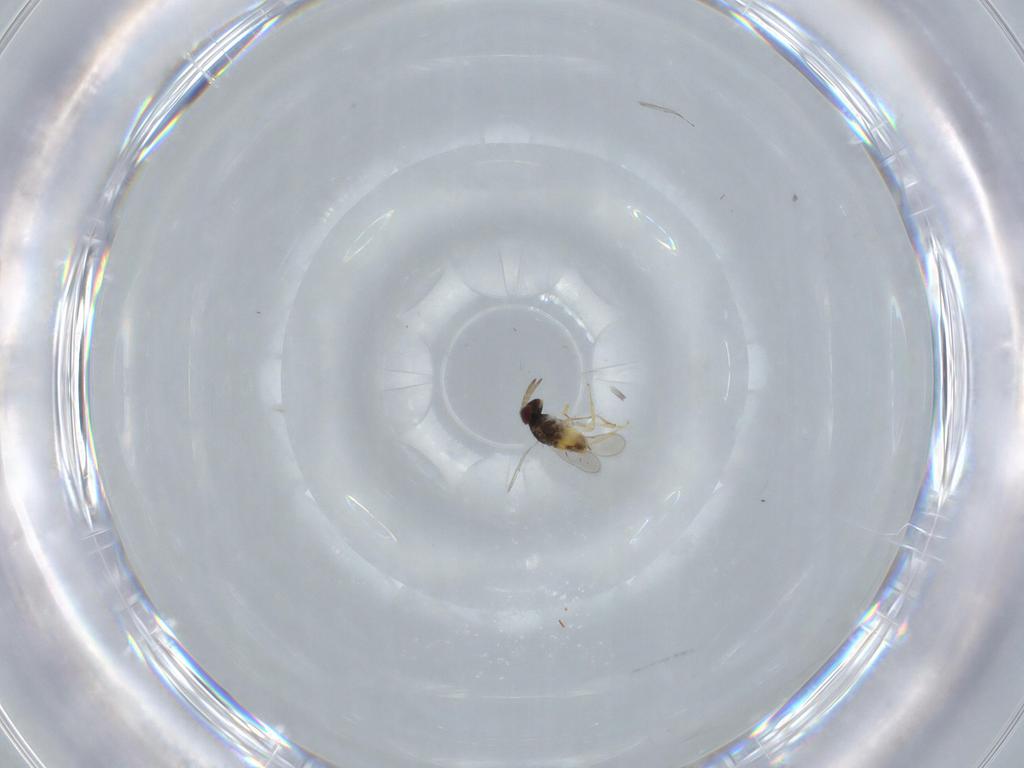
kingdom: Animalia
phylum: Arthropoda
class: Insecta
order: Hymenoptera
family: Aphelinidae
